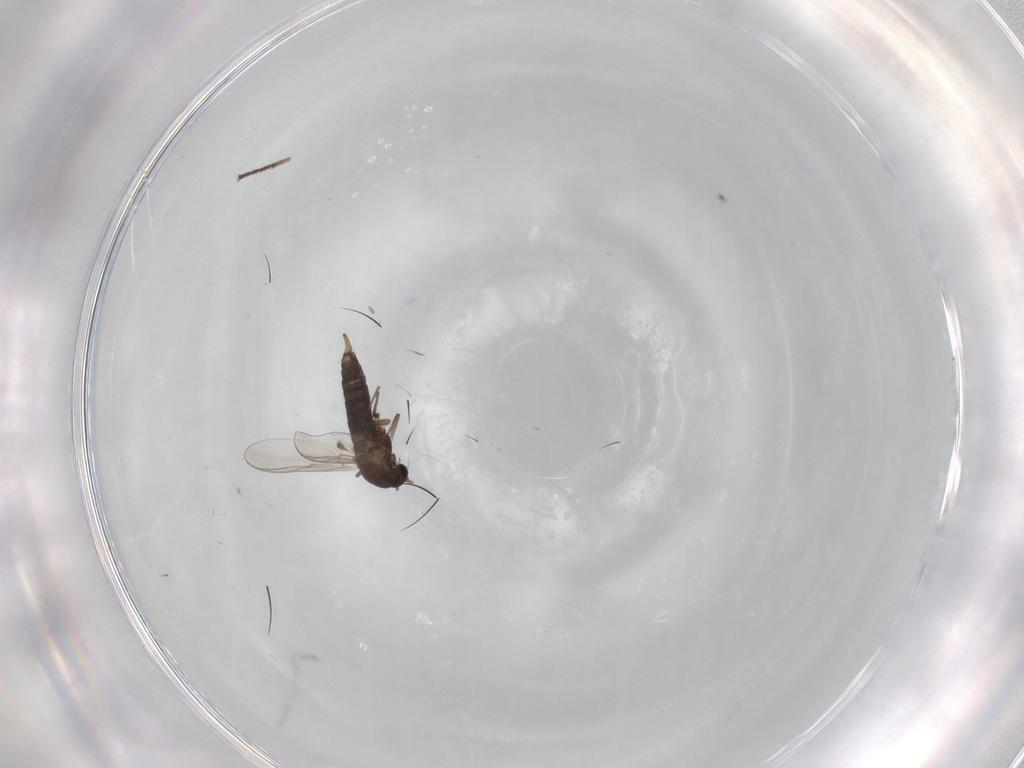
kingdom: Animalia
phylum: Arthropoda
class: Insecta
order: Diptera
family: Chironomidae
